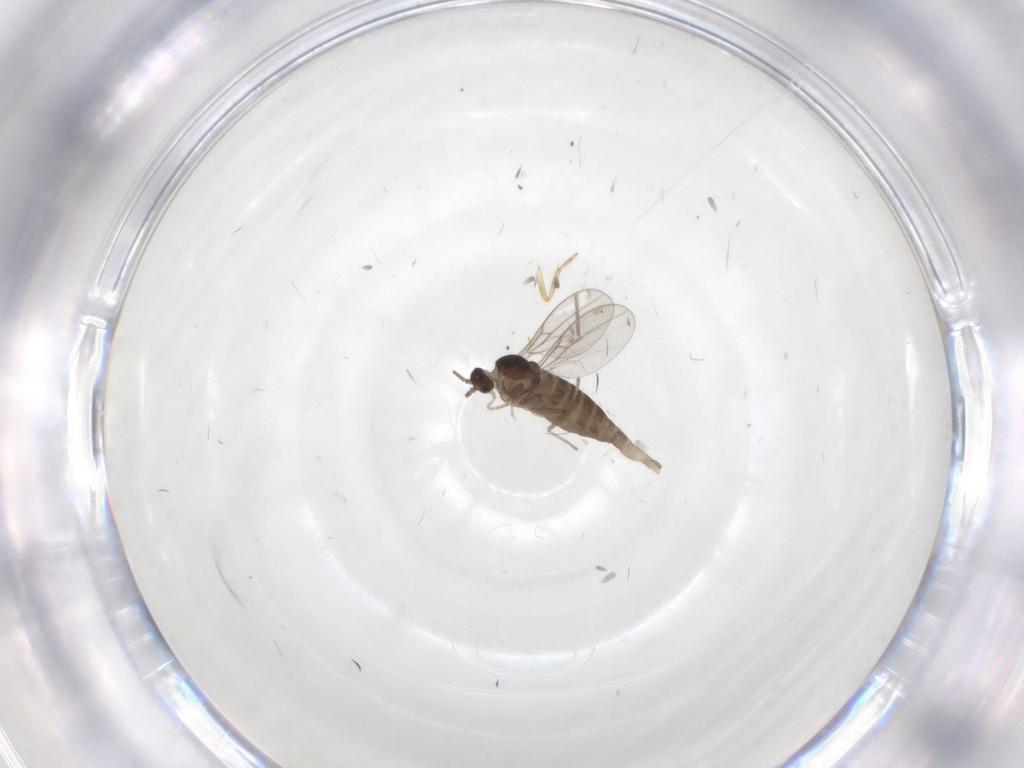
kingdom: Animalia
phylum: Arthropoda
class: Insecta
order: Diptera
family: Cecidomyiidae
